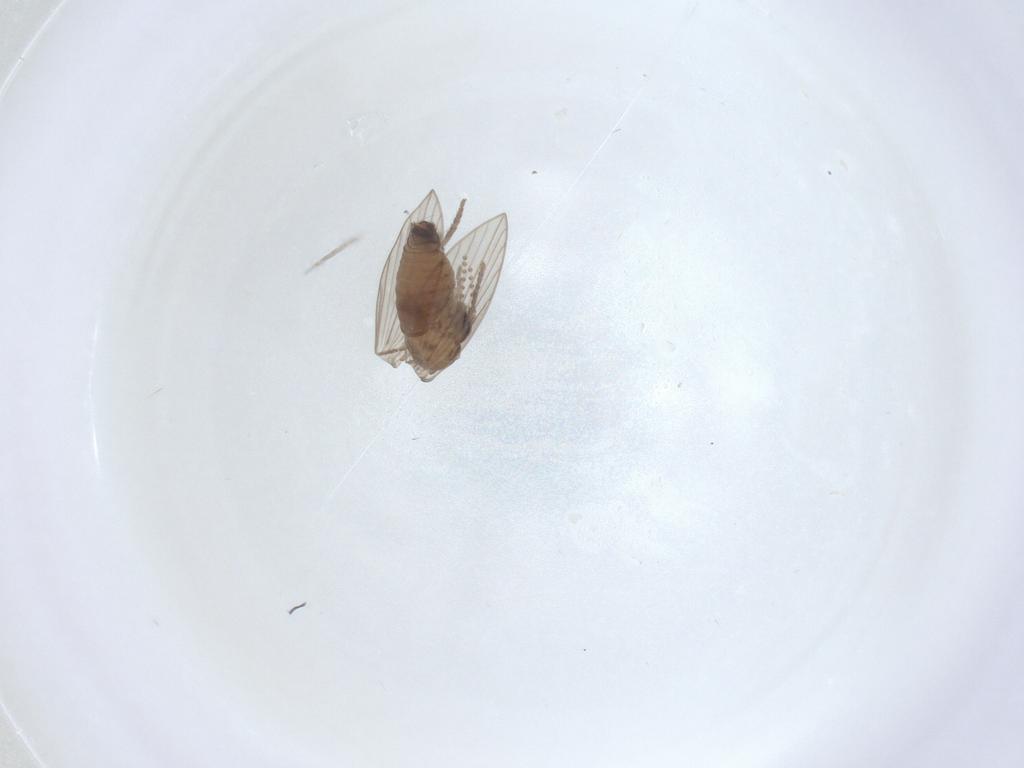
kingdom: Animalia
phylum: Arthropoda
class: Insecta
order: Diptera
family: Psychodidae
